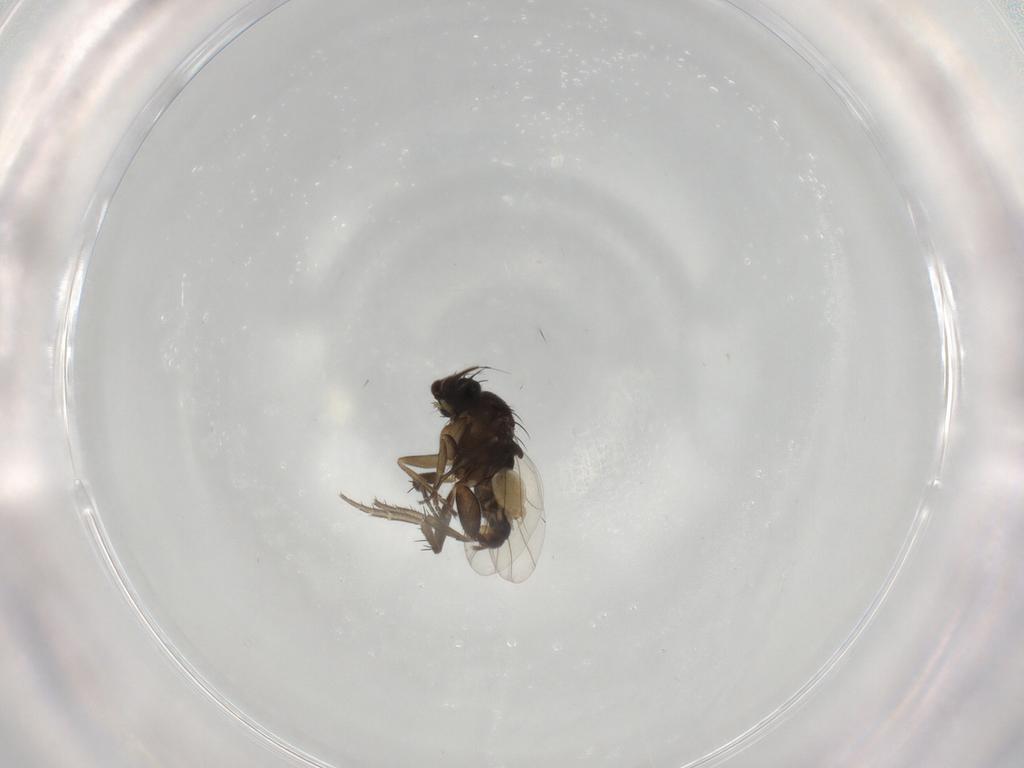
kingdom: Animalia
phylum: Arthropoda
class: Insecta
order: Diptera
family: Phoridae
